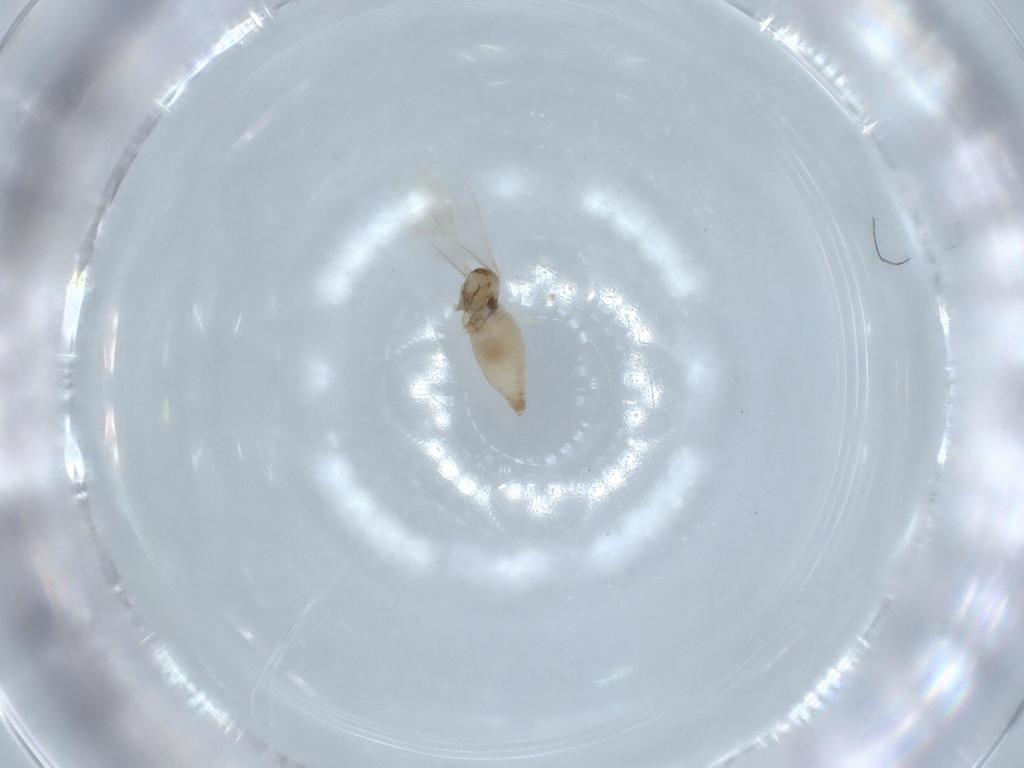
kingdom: Animalia
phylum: Arthropoda
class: Insecta
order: Diptera
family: Cecidomyiidae
